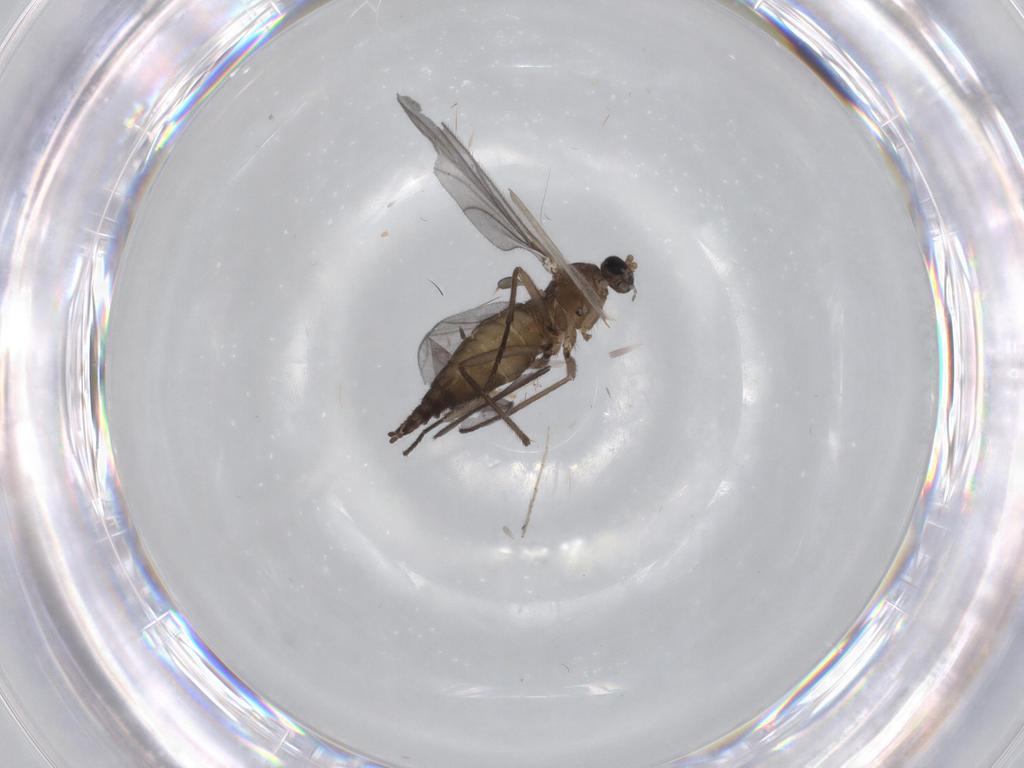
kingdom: Animalia
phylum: Arthropoda
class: Insecta
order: Diptera
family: Sciaridae
